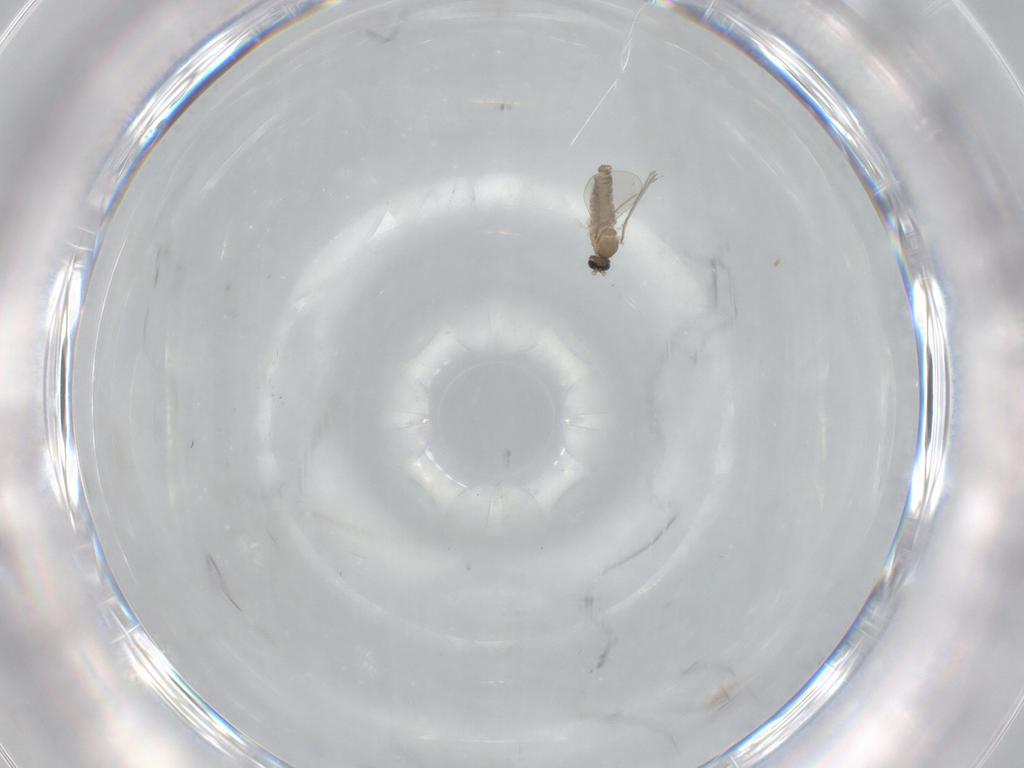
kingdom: Animalia
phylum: Arthropoda
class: Insecta
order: Diptera
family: Cecidomyiidae
